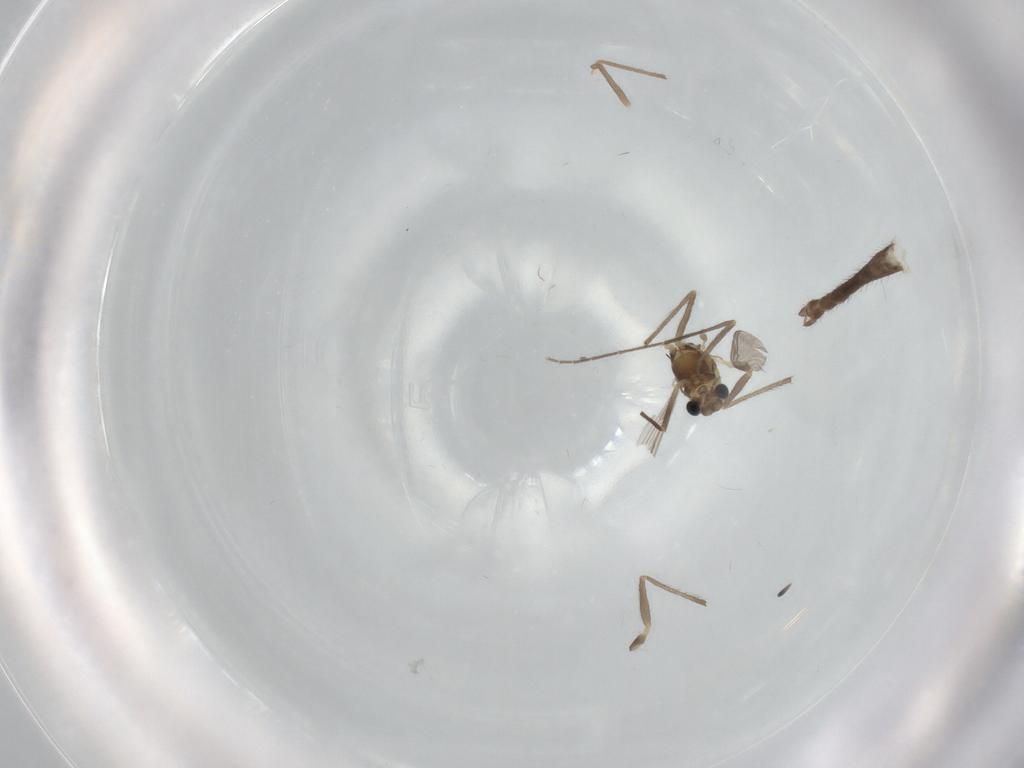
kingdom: Animalia
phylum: Arthropoda
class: Insecta
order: Diptera
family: Chironomidae
